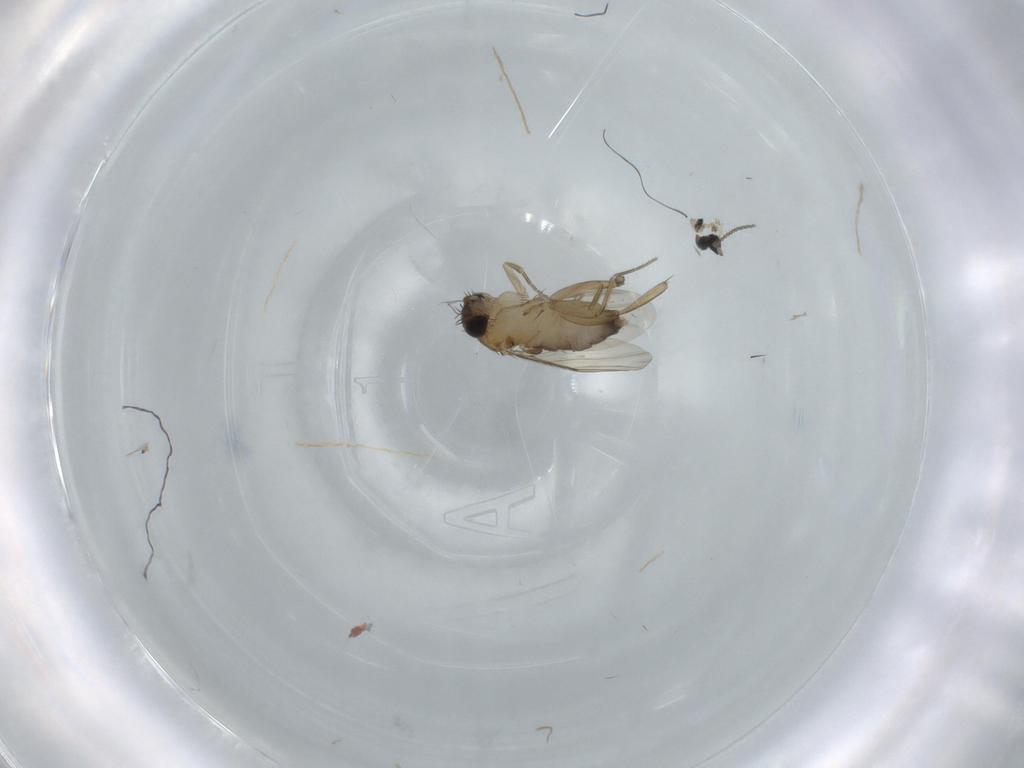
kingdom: Animalia
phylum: Arthropoda
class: Insecta
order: Diptera
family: Phoridae
